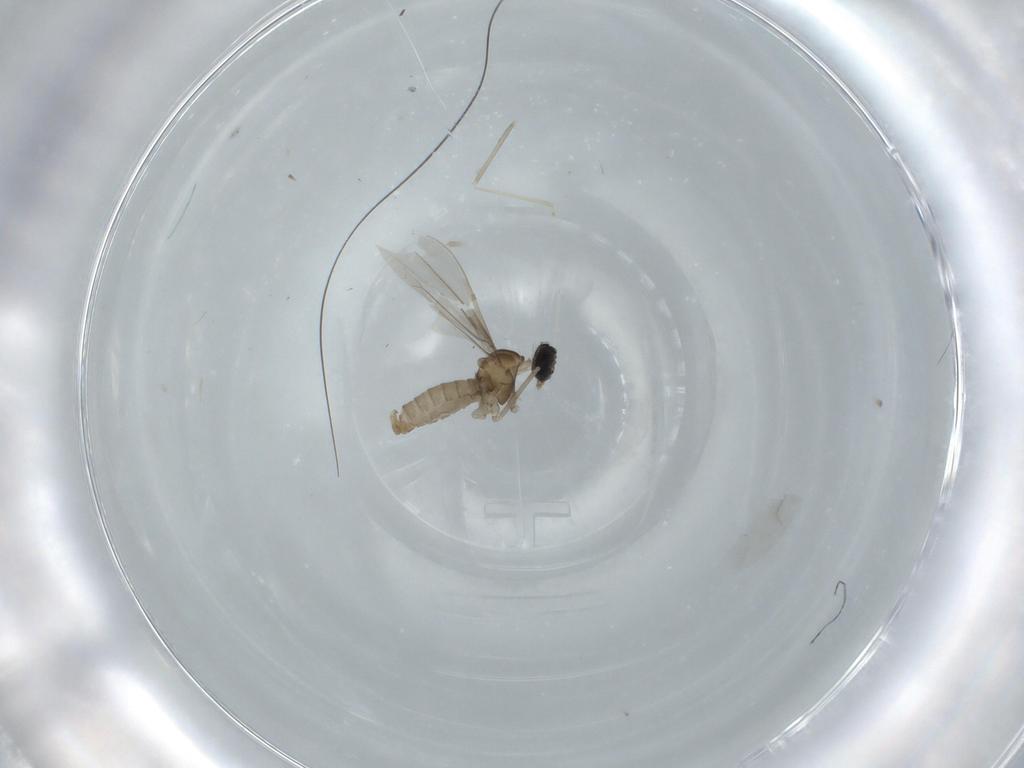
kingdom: Animalia
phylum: Arthropoda
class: Insecta
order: Diptera
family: Cecidomyiidae
